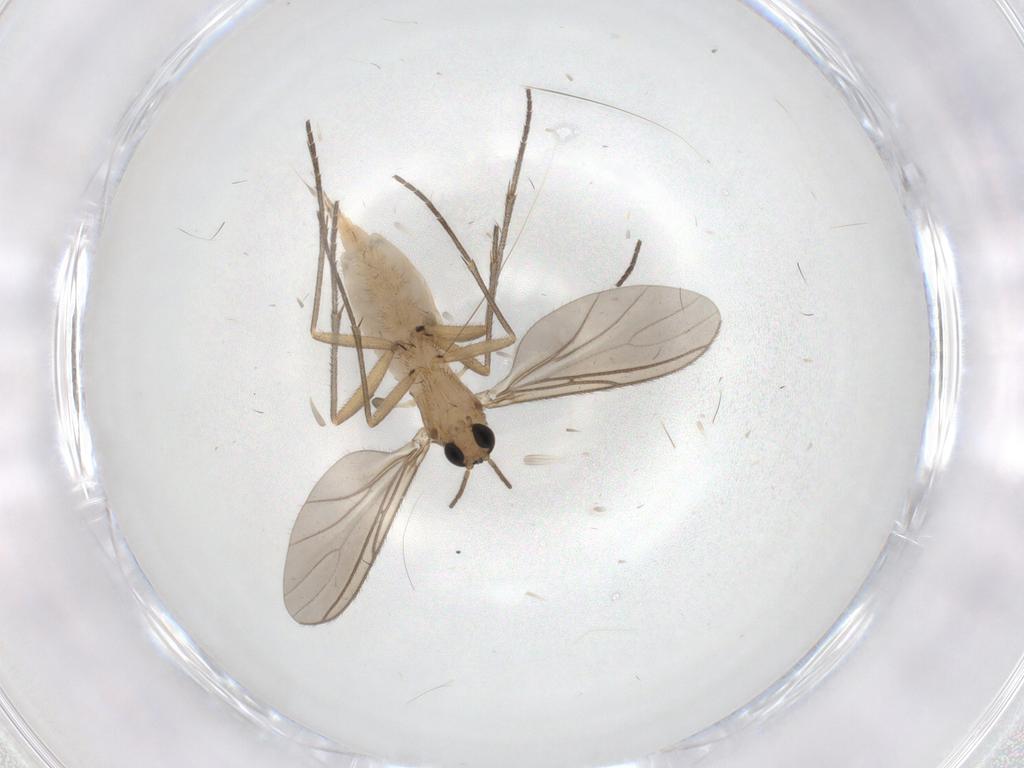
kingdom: Animalia
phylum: Arthropoda
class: Insecta
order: Diptera
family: Sciaridae
